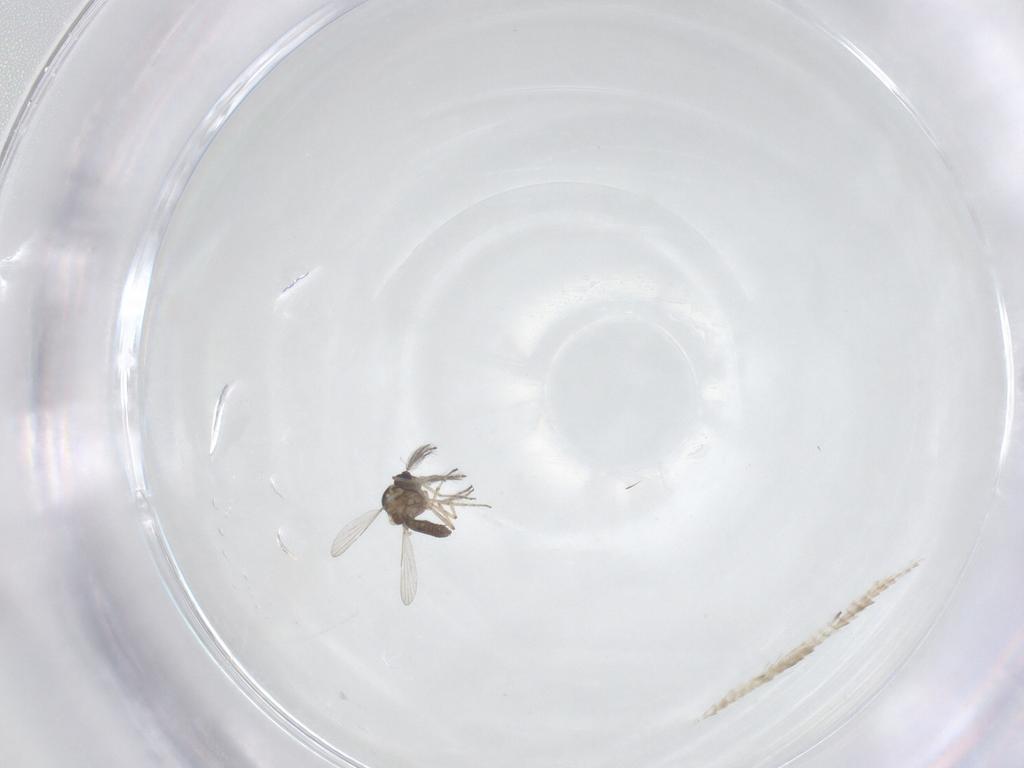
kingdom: Animalia
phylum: Arthropoda
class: Insecta
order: Diptera
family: Ceratopogonidae
